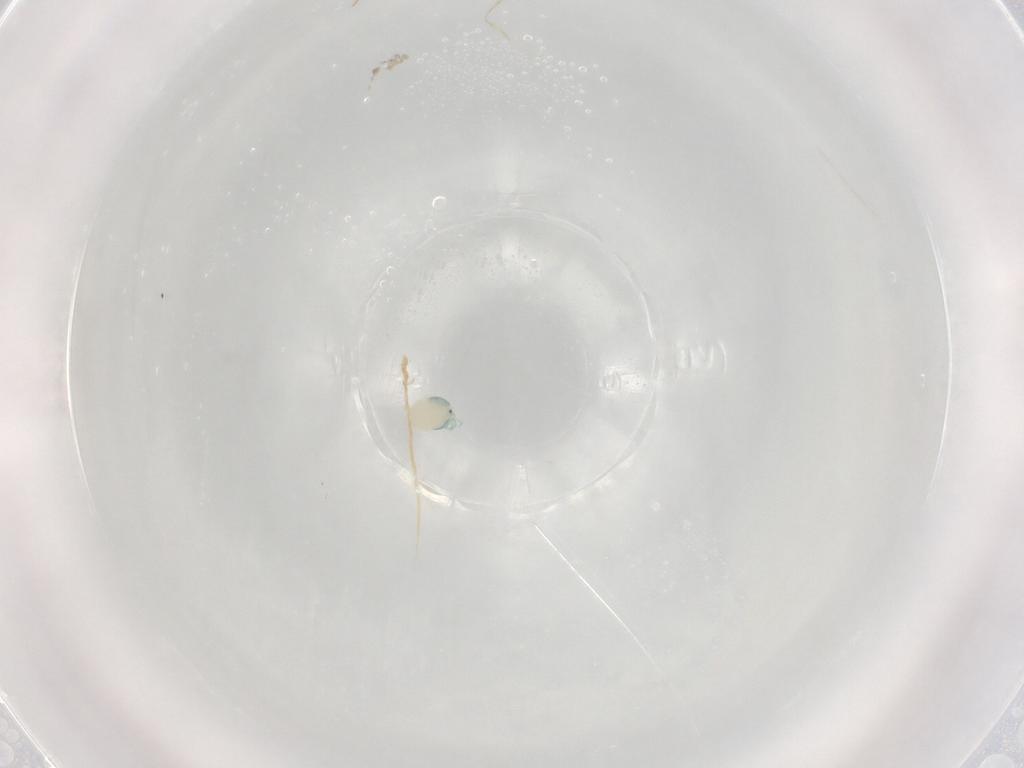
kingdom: Animalia
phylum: Arthropoda
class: Arachnida
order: Trombidiformes
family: Arrenuridae
